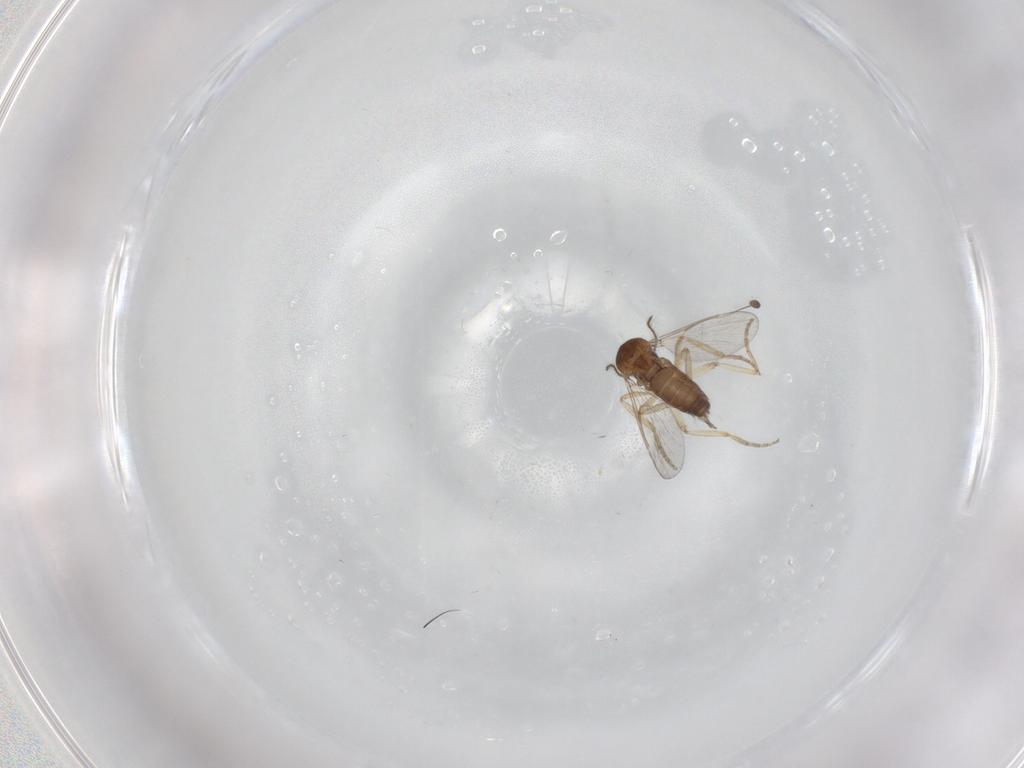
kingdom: Animalia
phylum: Arthropoda
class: Insecta
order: Diptera
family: Ceratopogonidae
